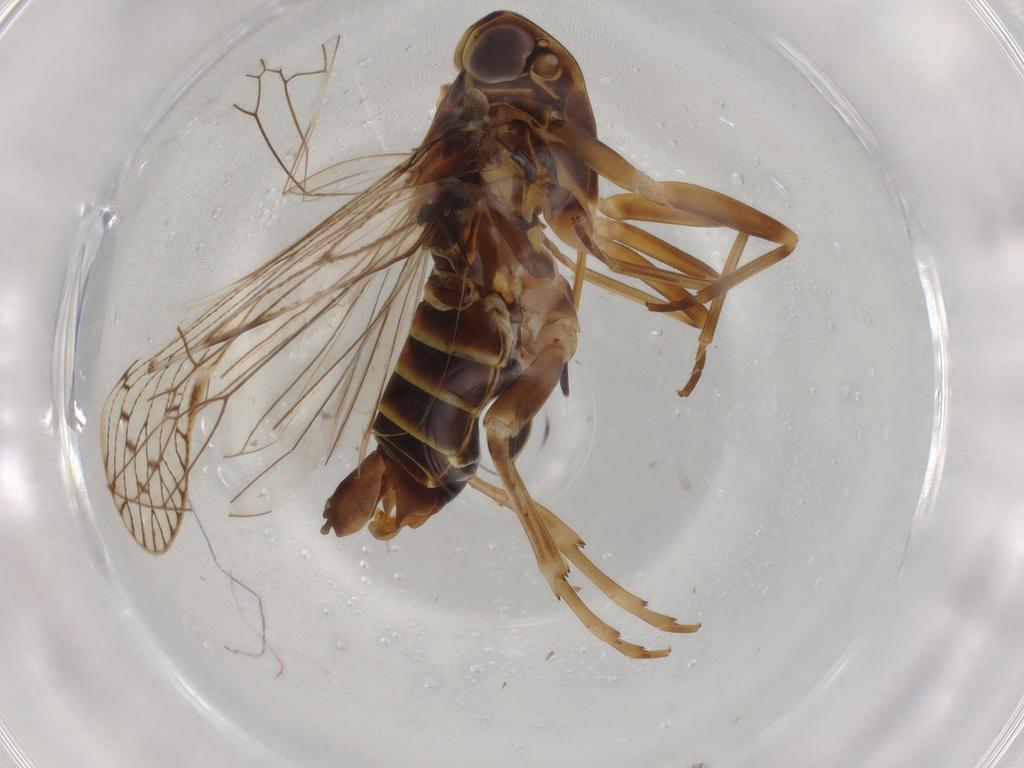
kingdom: Animalia
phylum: Arthropoda
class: Insecta
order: Hemiptera
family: Cixiidae
